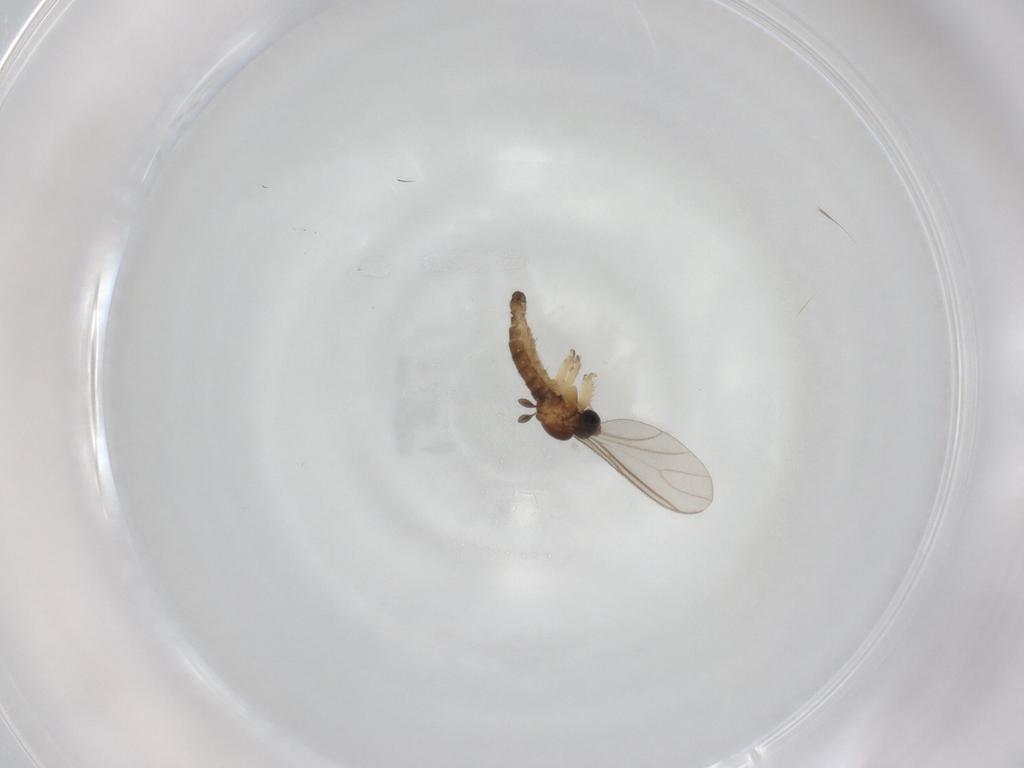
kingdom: Animalia
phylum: Arthropoda
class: Insecta
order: Diptera
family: Sciaridae
